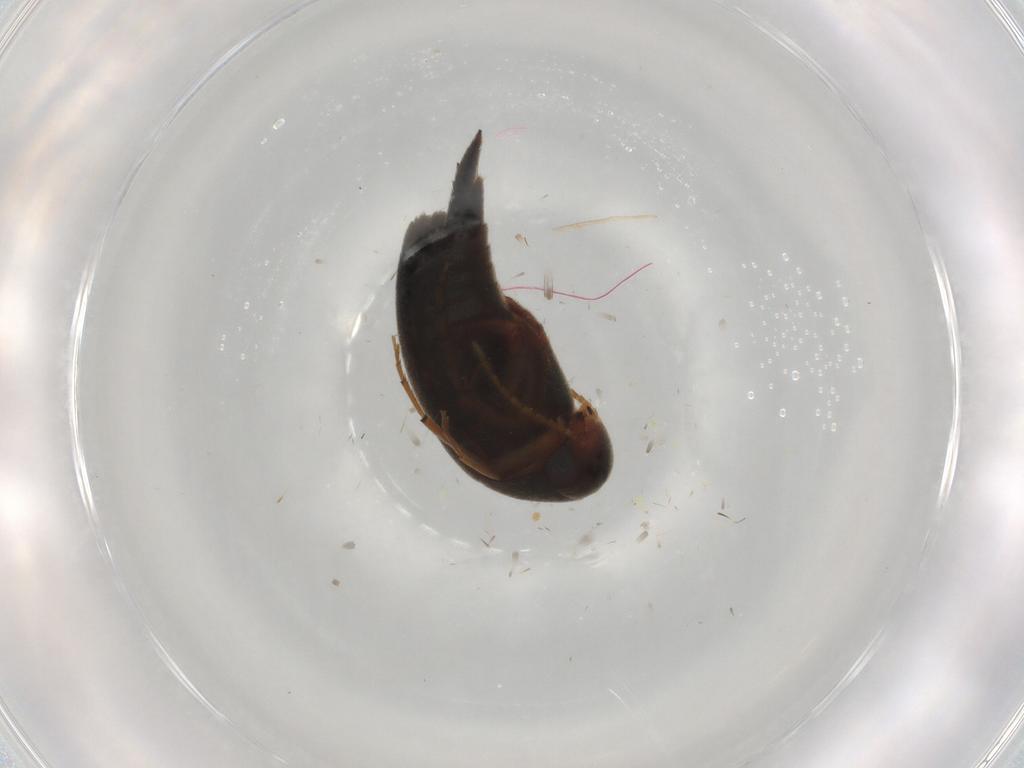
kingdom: Animalia
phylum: Arthropoda
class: Insecta
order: Coleoptera
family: Mordellidae
